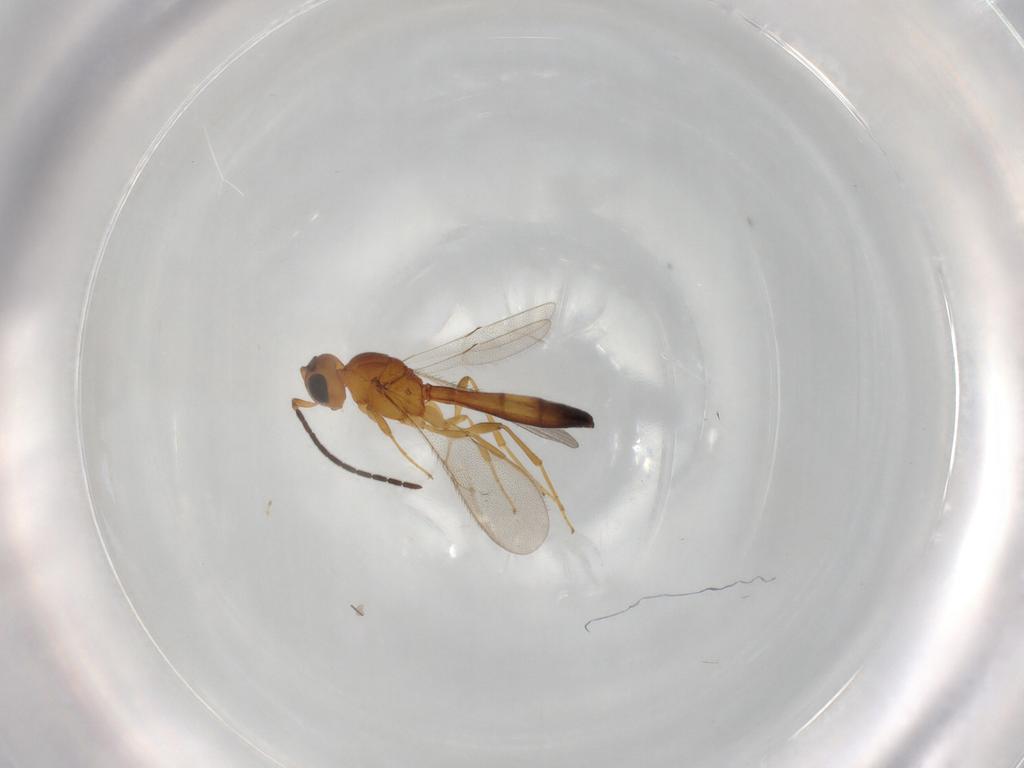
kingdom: Animalia
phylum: Arthropoda
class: Insecta
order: Hymenoptera
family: Scelionidae
